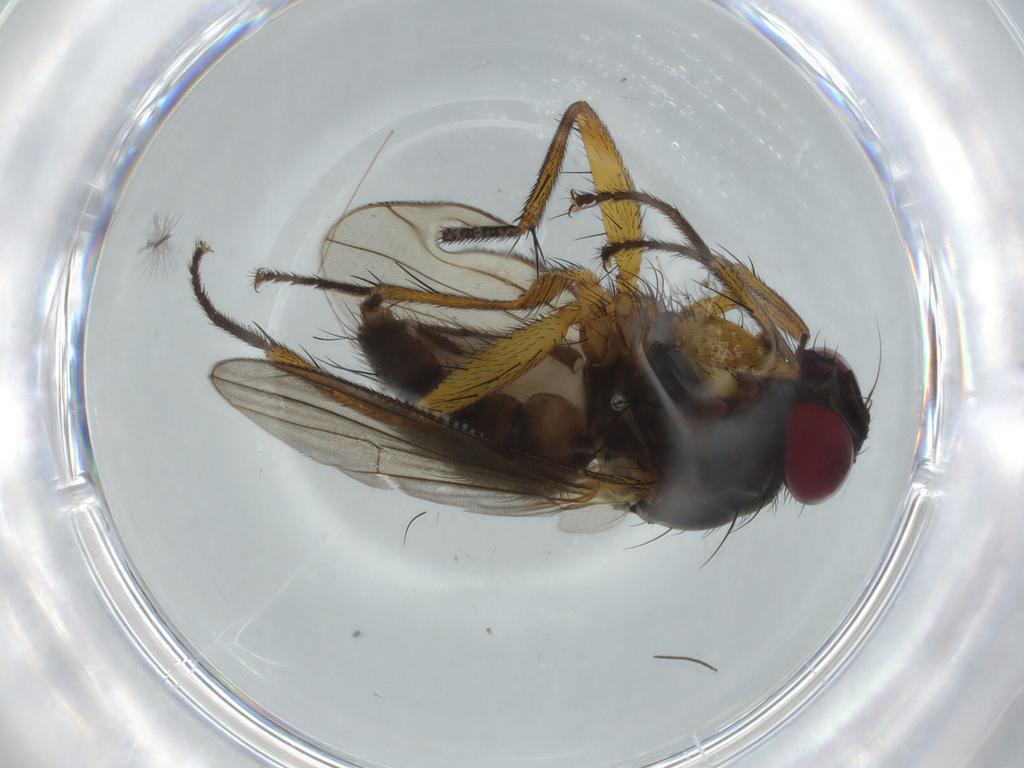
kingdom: Animalia
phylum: Arthropoda
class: Insecta
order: Diptera
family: Muscidae
